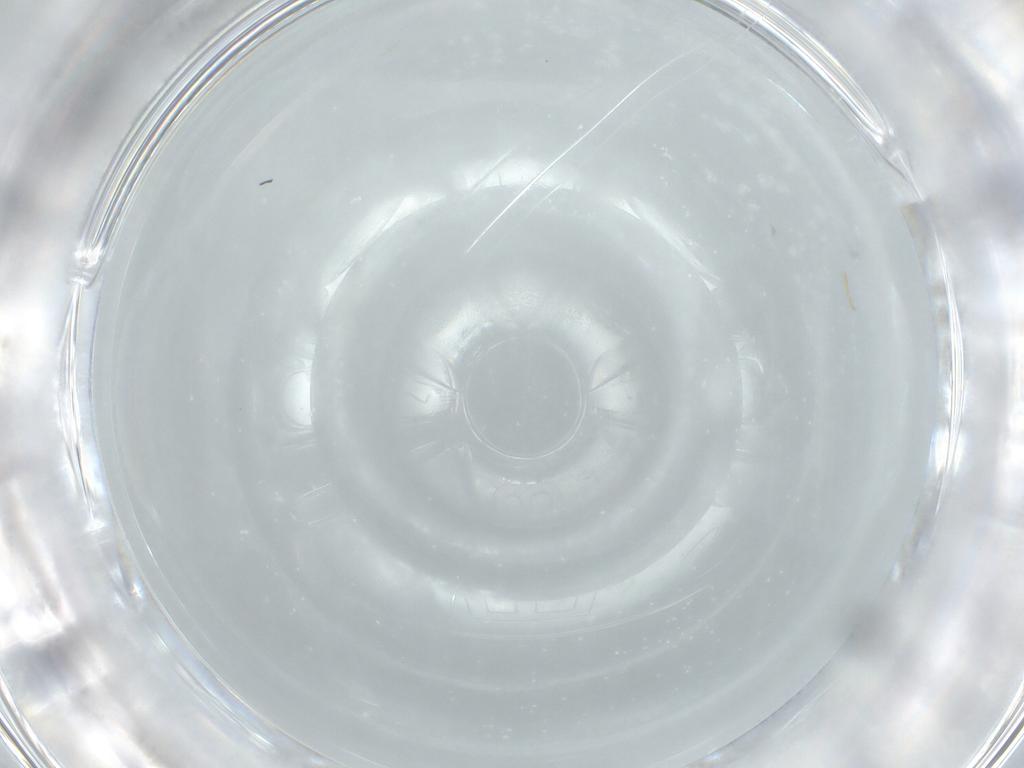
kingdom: Animalia
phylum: Arthropoda
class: Insecta
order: Hymenoptera
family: Platygastridae
